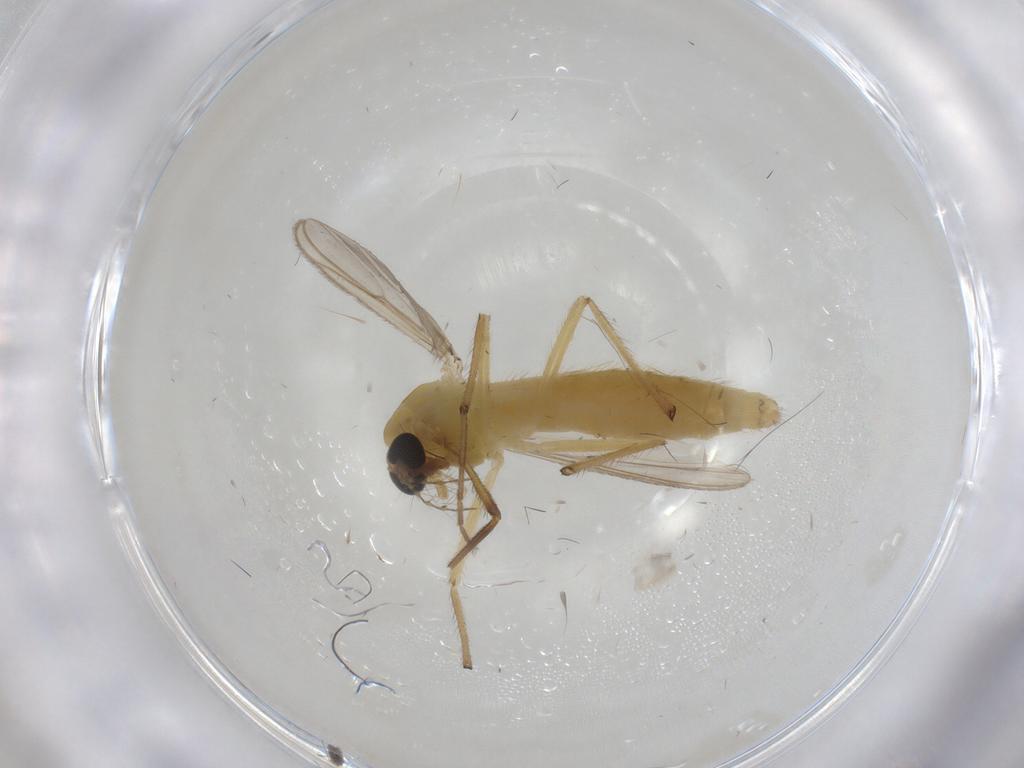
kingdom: Animalia
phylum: Arthropoda
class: Insecta
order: Diptera
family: Chironomidae
